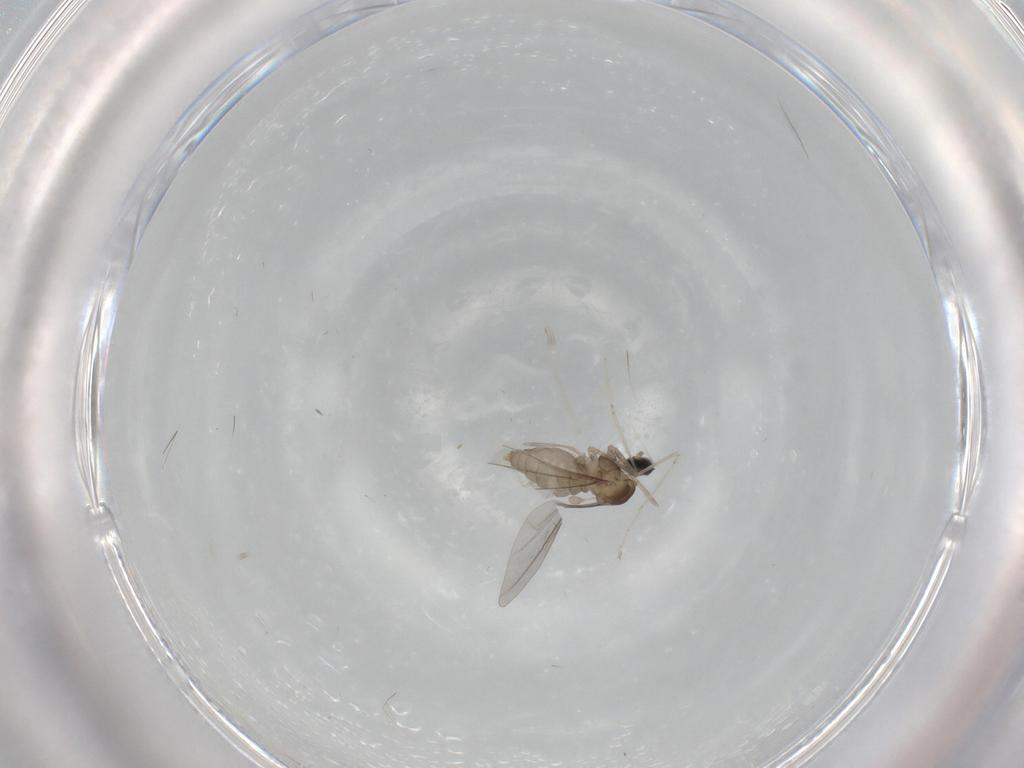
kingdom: Animalia
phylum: Arthropoda
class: Insecta
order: Diptera
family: Cecidomyiidae
